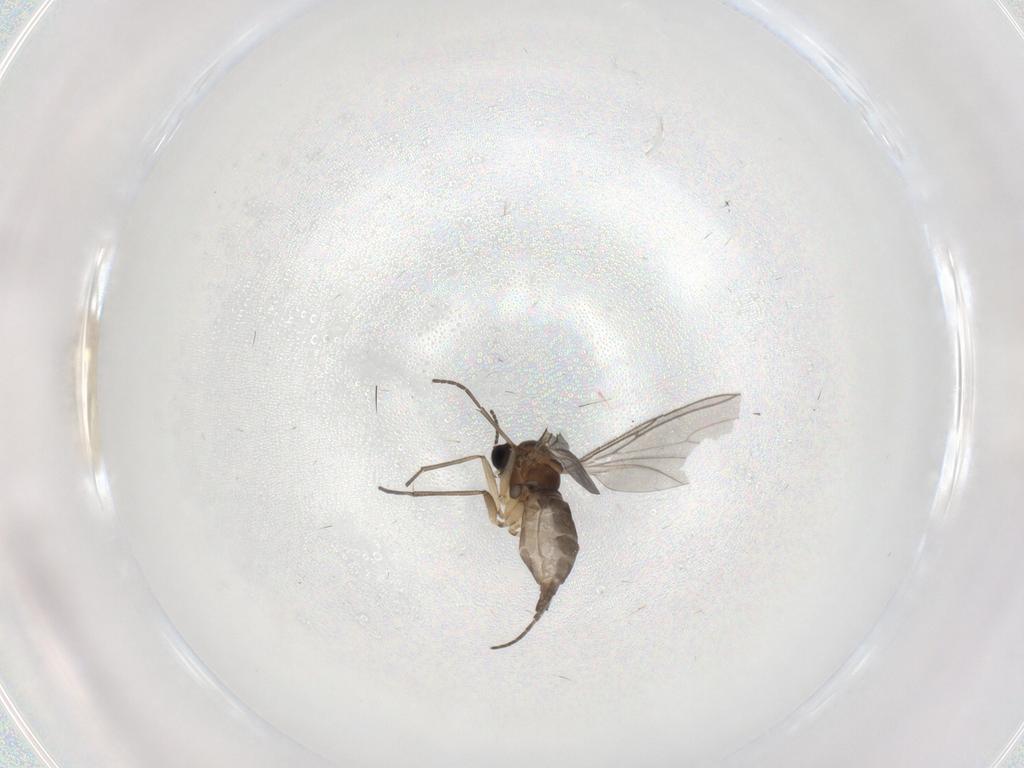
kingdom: Animalia
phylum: Arthropoda
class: Insecta
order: Diptera
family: Sciaridae
